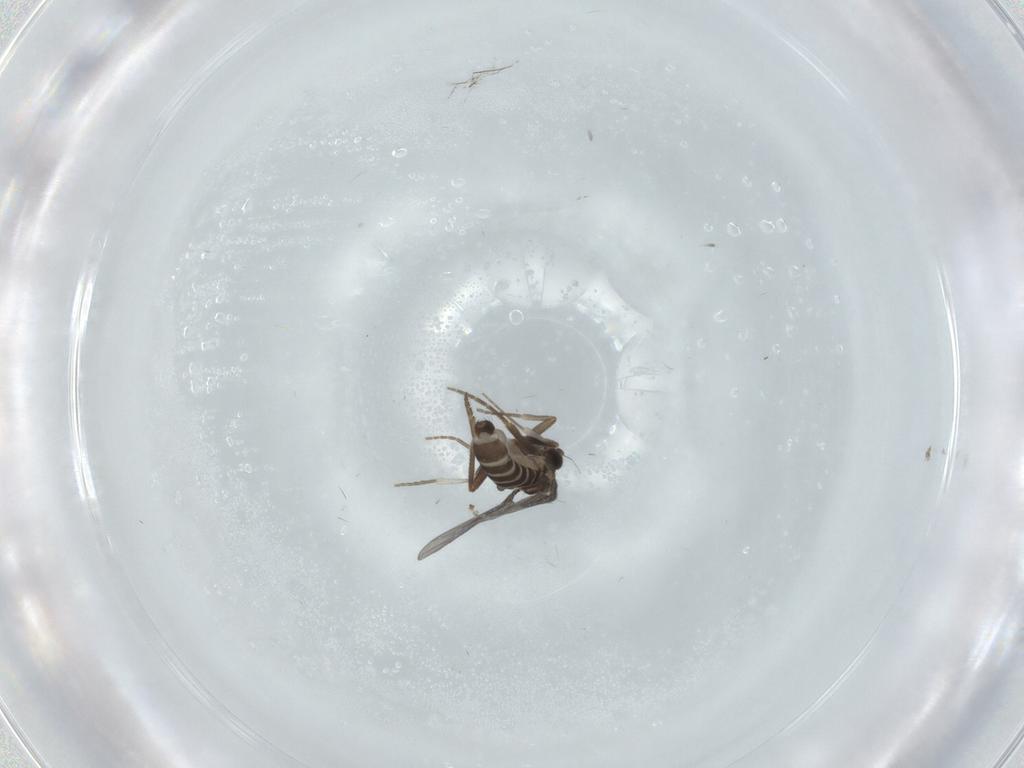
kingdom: Animalia
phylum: Arthropoda
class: Insecta
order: Diptera
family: Phoridae
